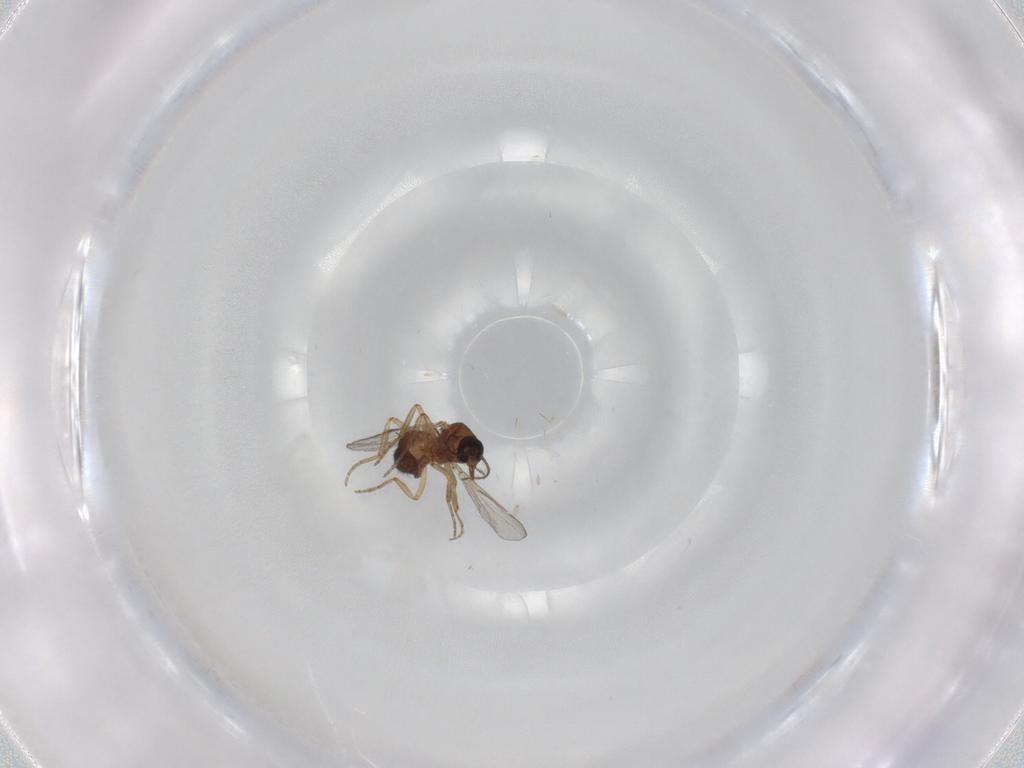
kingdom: Animalia
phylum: Arthropoda
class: Insecta
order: Diptera
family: Ceratopogonidae
